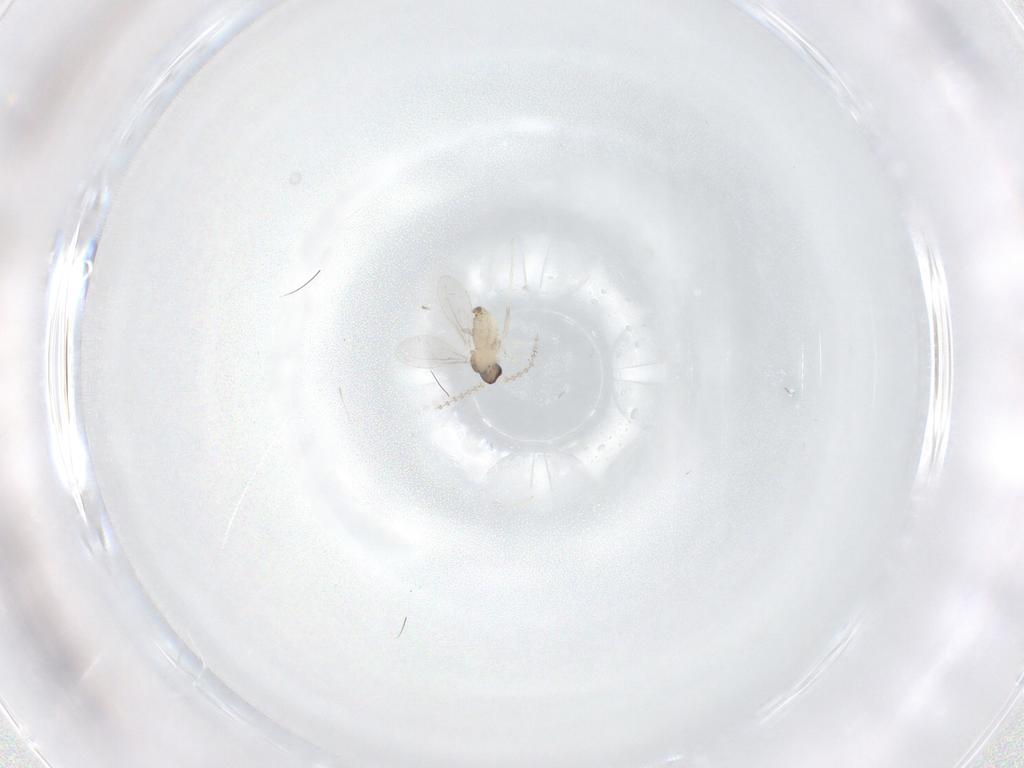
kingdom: Animalia
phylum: Arthropoda
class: Insecta
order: Diptera
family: Cecidomyiidae
